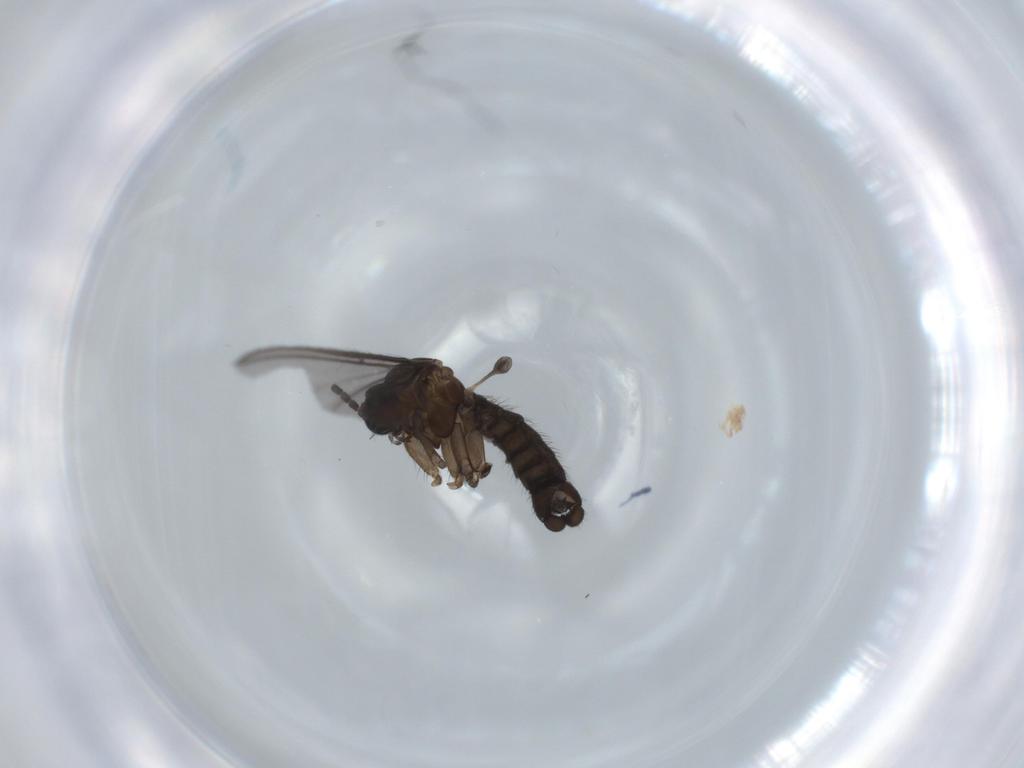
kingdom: Animalia
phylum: Arthropoda
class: Insecta
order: Diptera
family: Sciaridae
